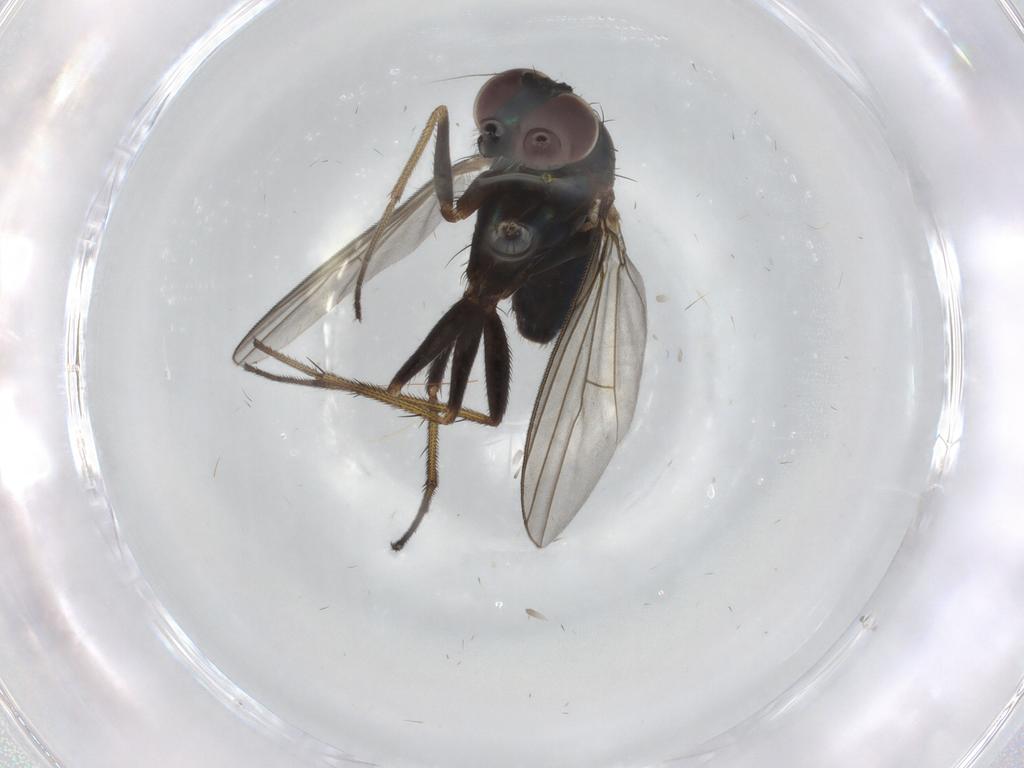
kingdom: Animalia
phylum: Arthropoda
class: Insecta
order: Diptera
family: Dolichopodidae
